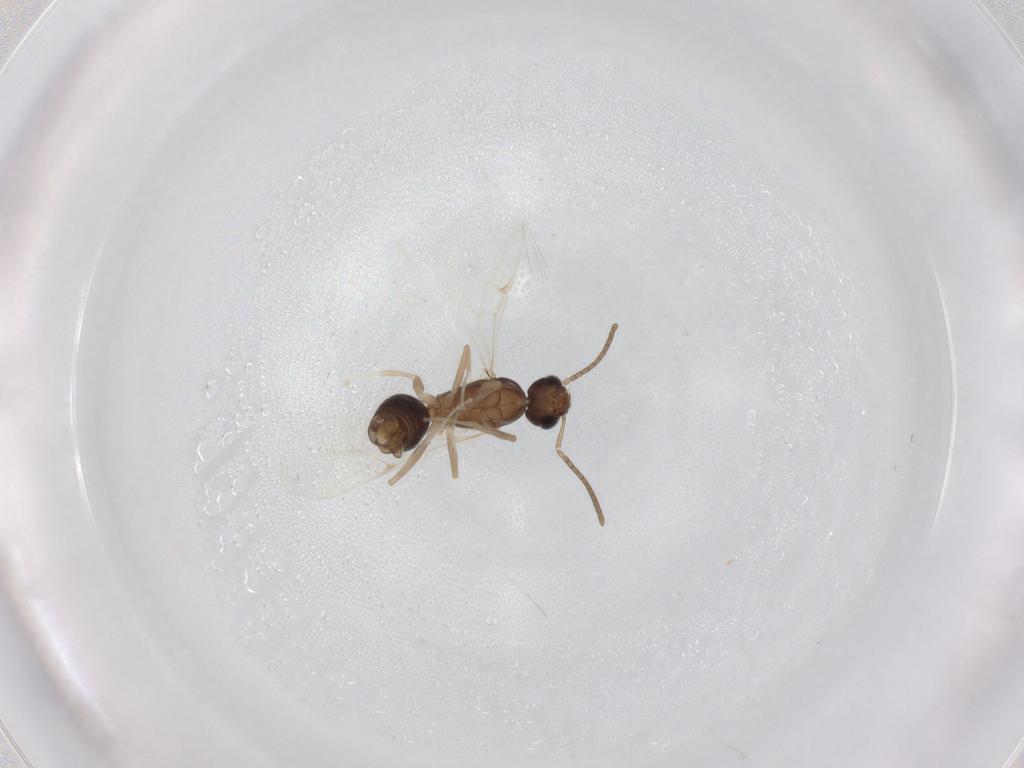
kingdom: Animalia
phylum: Arthropoda
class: Insecta
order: Hymenoptera
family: Formicidae
